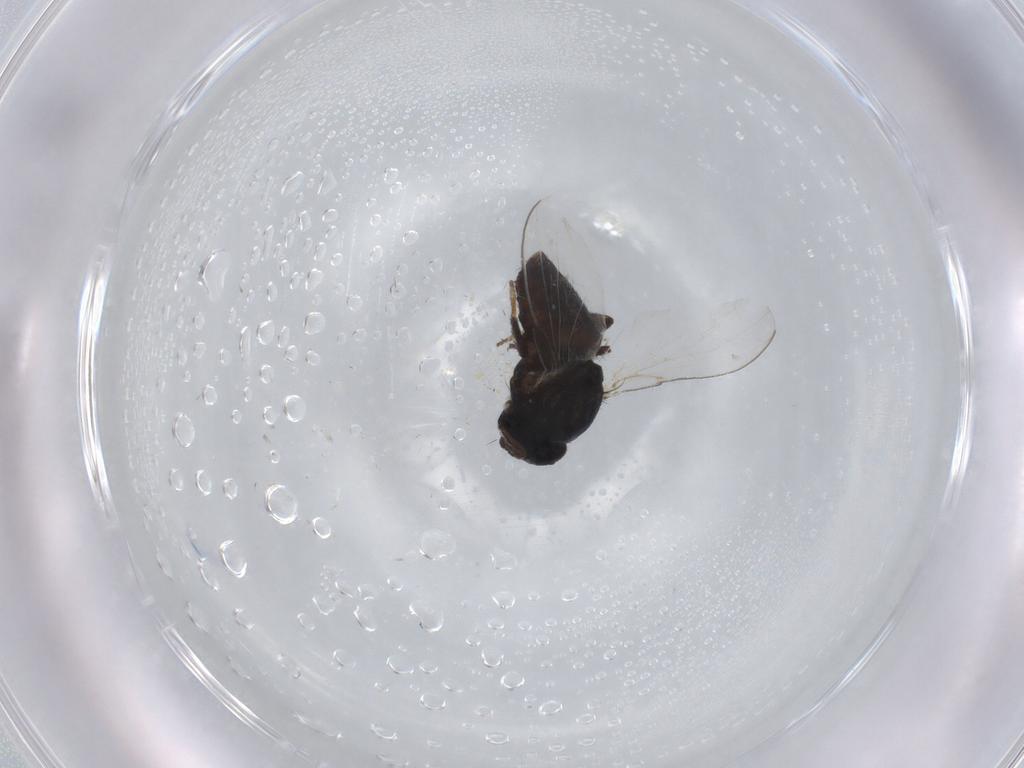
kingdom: Animalia
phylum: Arthropoda
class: Insecta
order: Diptera
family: Milichiidae
